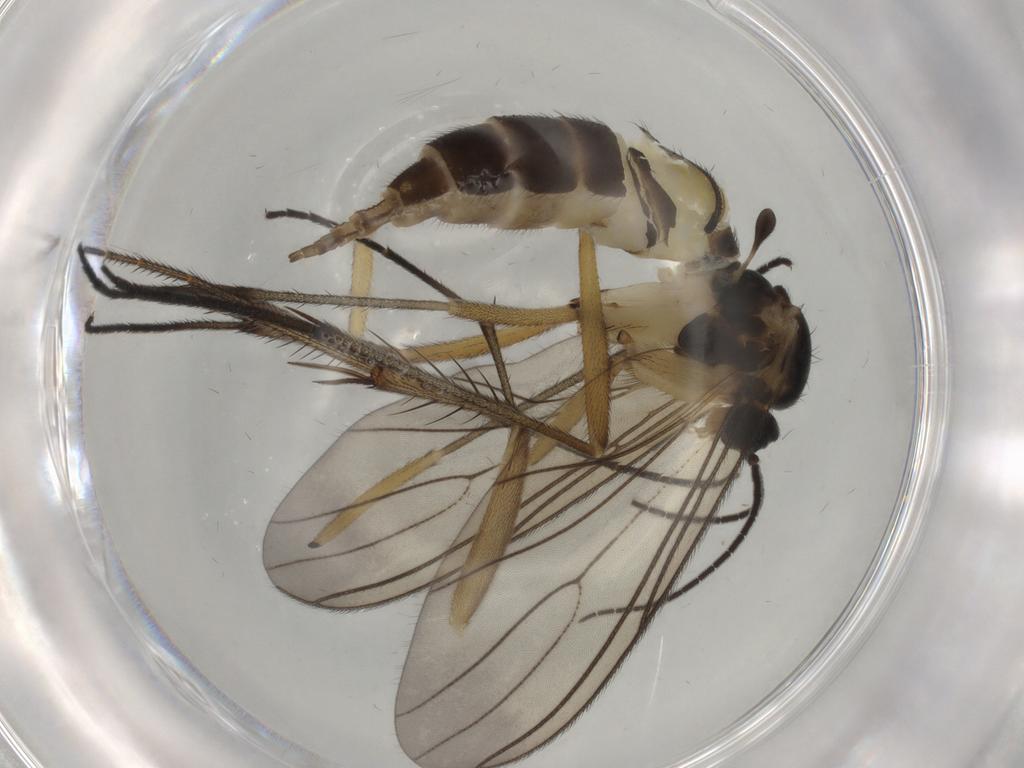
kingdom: Animalia
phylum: Arthropoda
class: Insecta
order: Diptera
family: Sciaridae
